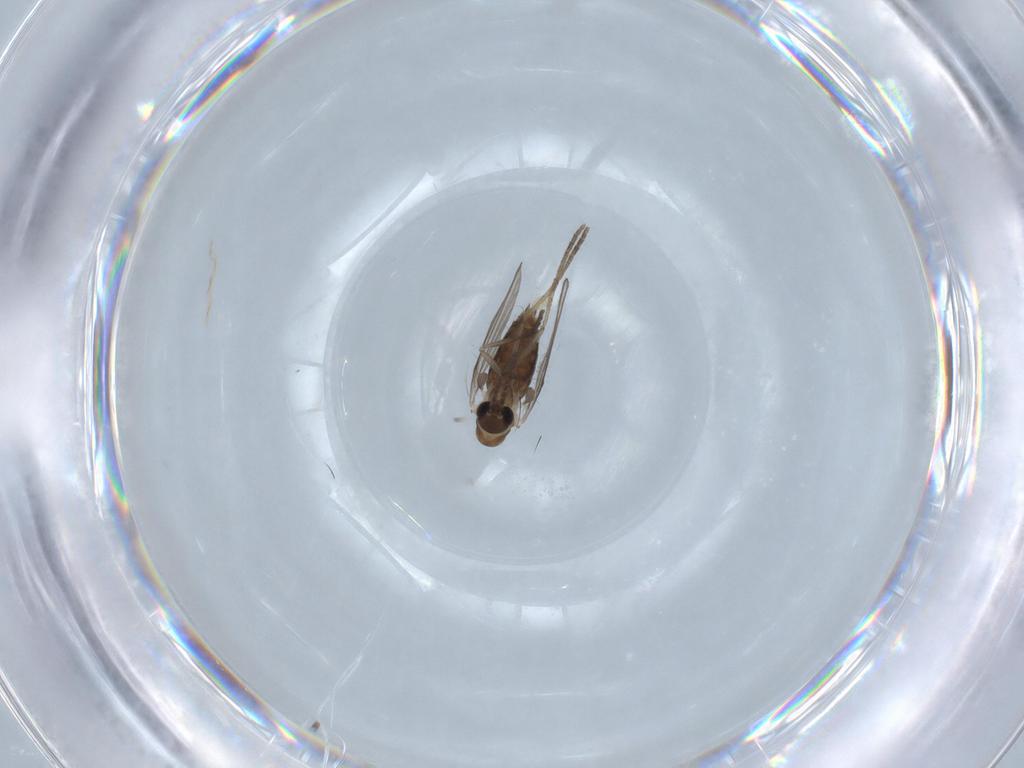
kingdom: Animalia
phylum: Arthropoda
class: Insecta
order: Diptera
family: Psychodidae
